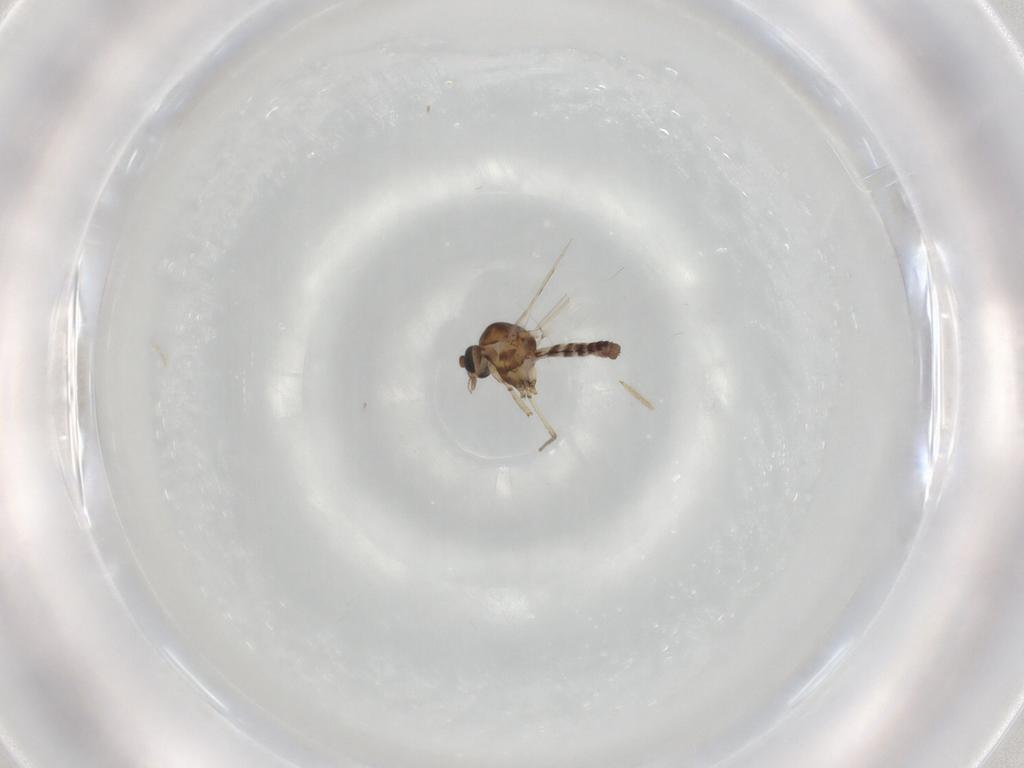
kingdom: Animalia
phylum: Arthropoda
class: Insecta
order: Diptera
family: Ceratopogonidae
